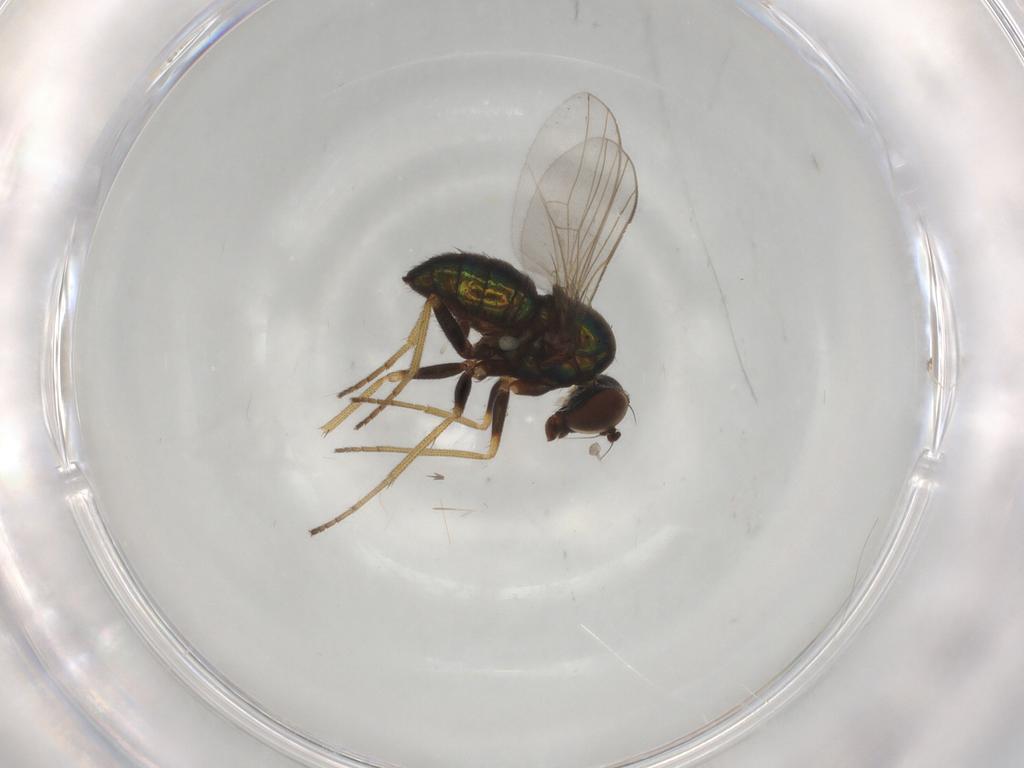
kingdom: Animalia
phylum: Arthropoda
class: Insecta
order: Diptera
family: Dolichopodidae
